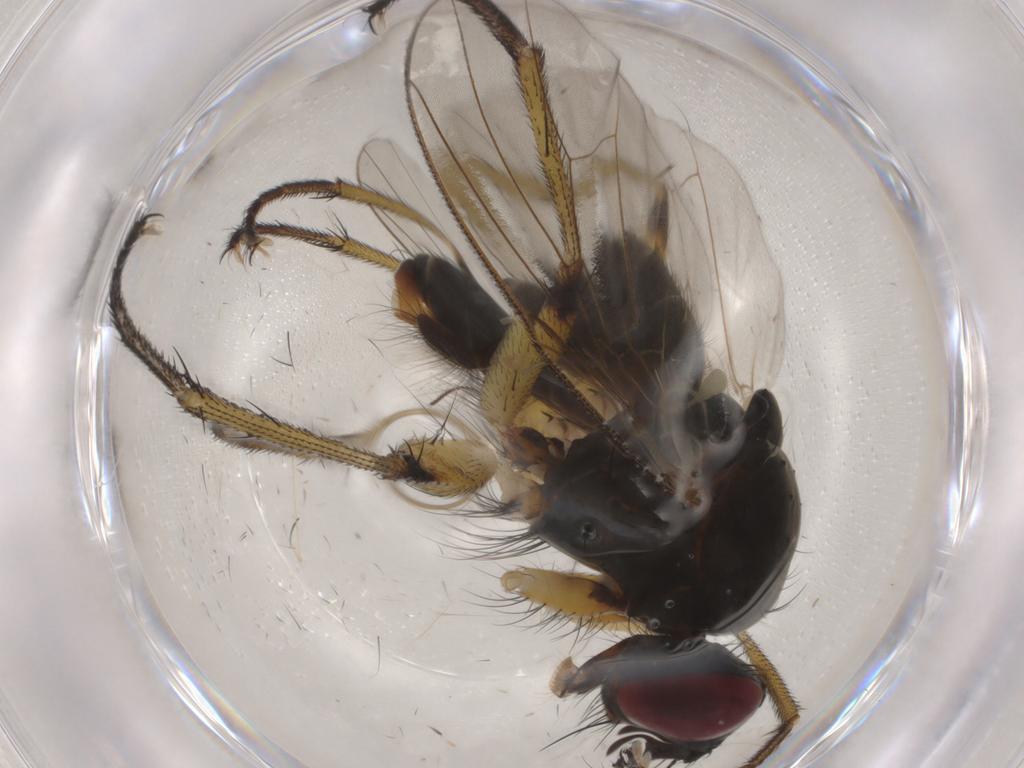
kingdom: Animalia
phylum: Arthropoda
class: Insecta
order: Diptera
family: Muscidae
